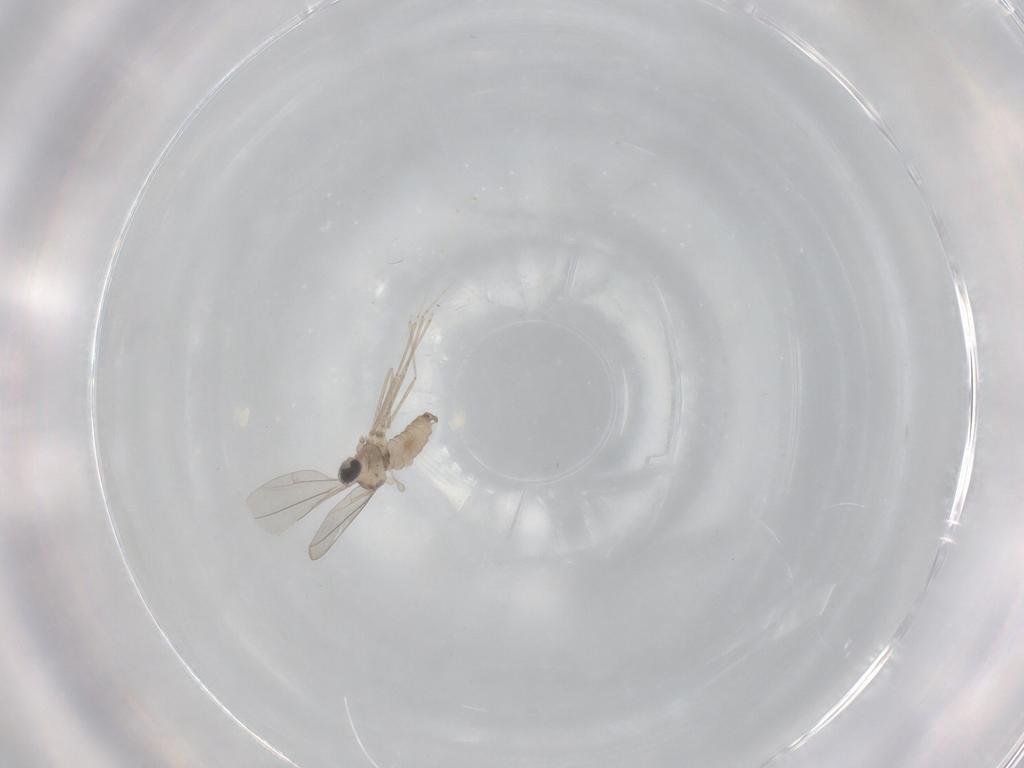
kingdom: Animalia
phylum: Arthropoda
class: Insecta
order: Diptera
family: Cecidomyiidae
